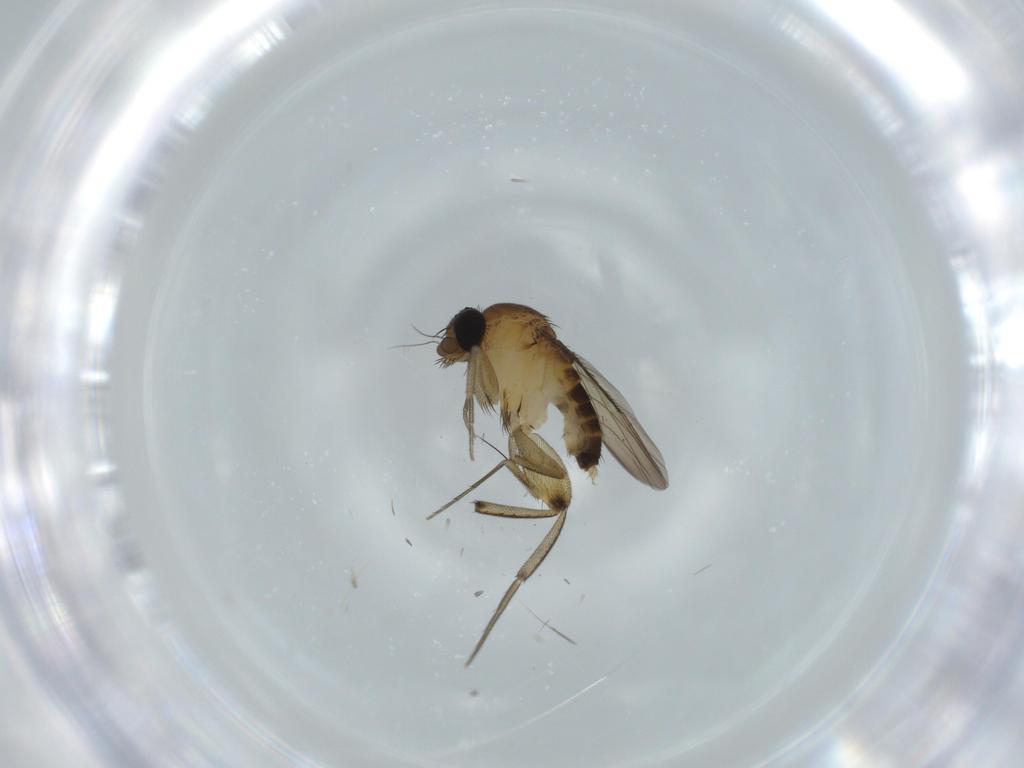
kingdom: Animalia
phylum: Arthropoda
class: Insecta
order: Diptera
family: Phoridae
